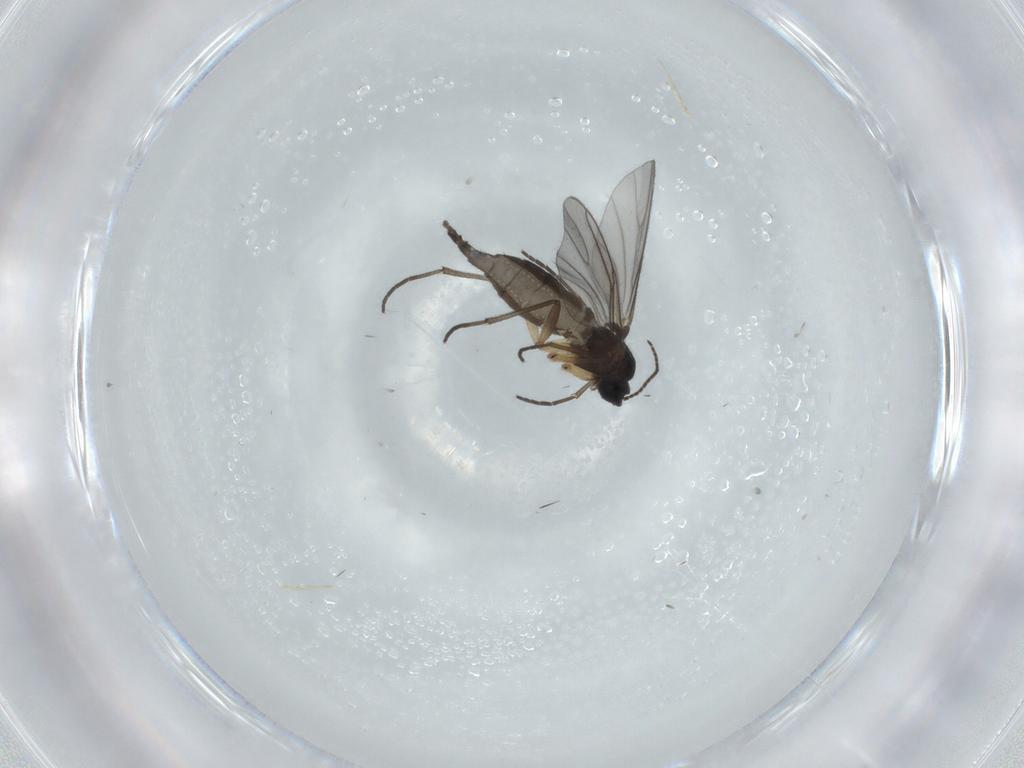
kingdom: Animalia
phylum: Arthropoda
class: Insecta
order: Diptera
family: Sciaridae
